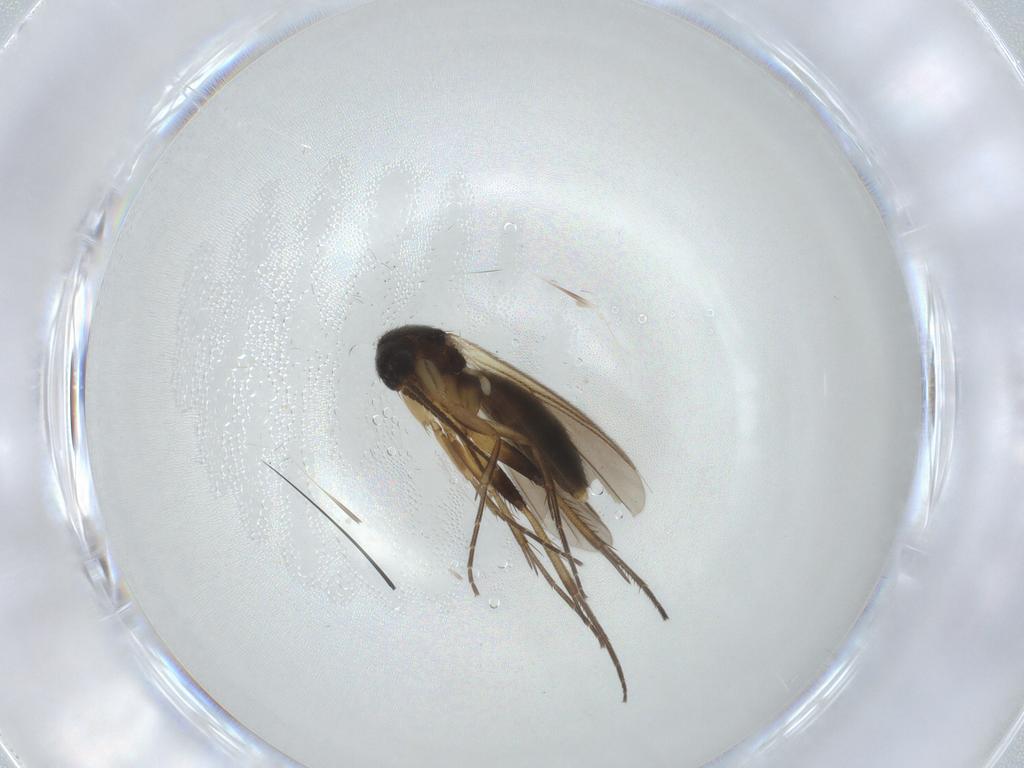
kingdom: Animalia
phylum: Arthropoda
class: Insecta
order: Diptera
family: Mycetophilidae
